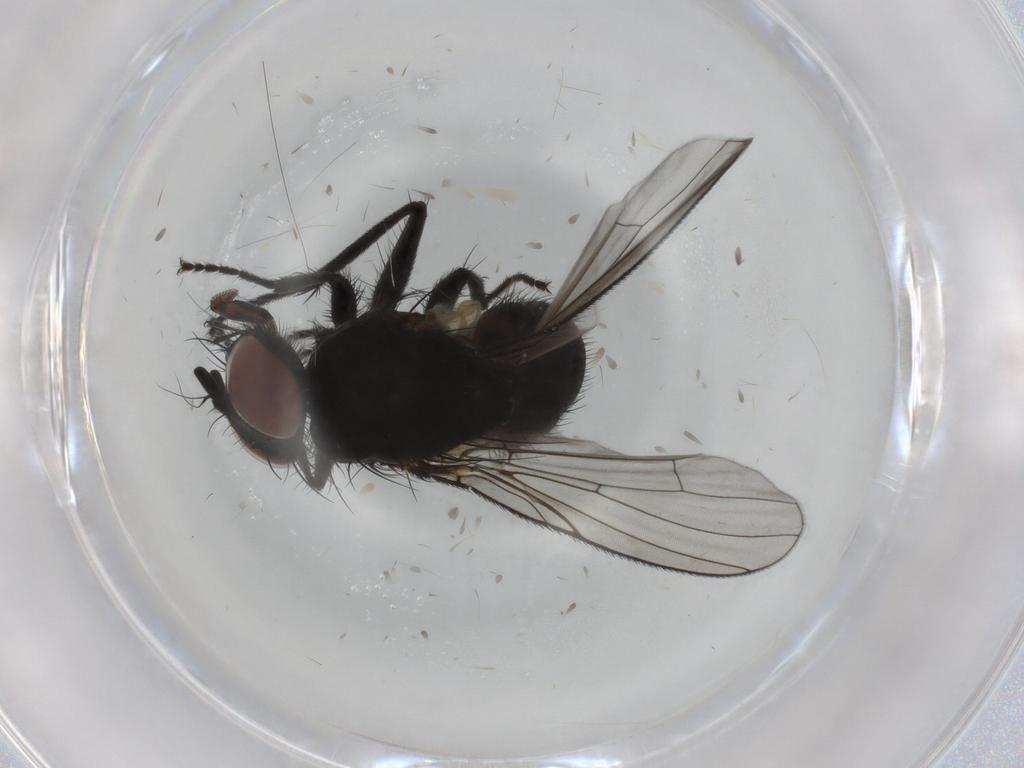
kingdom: Animalia
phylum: Arthropoda
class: Insecta
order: Diptera
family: Muscidae
